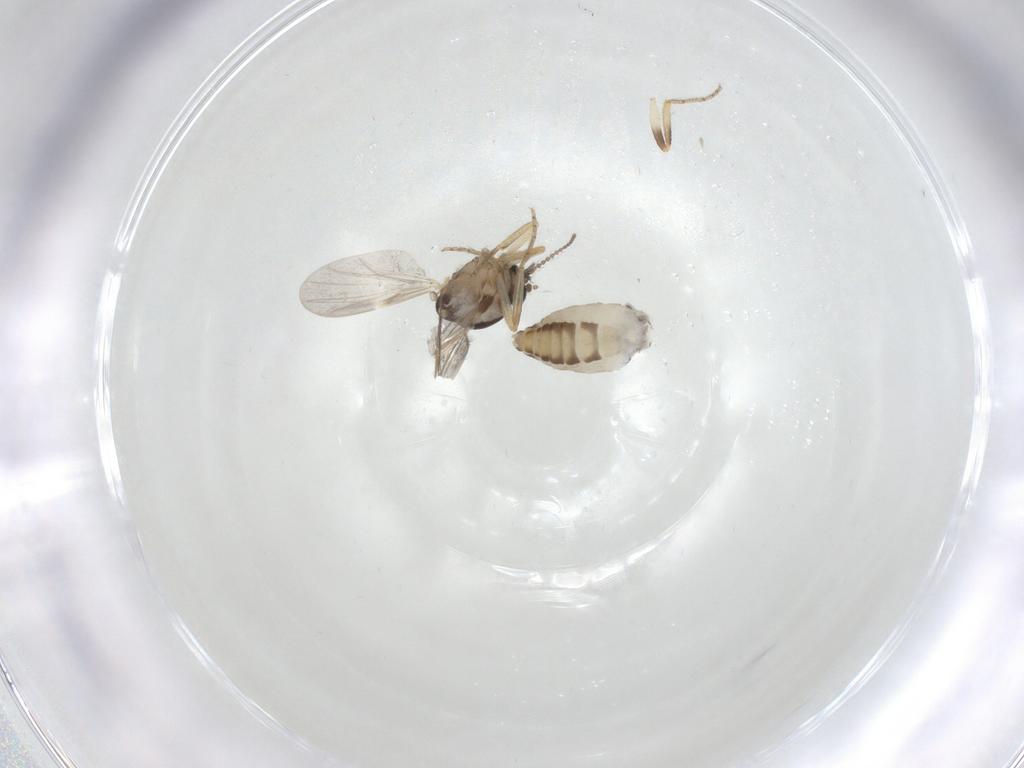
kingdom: Animalia
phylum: Arthropoda
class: Insecta
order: Diptera
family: Ceratopogonidae
